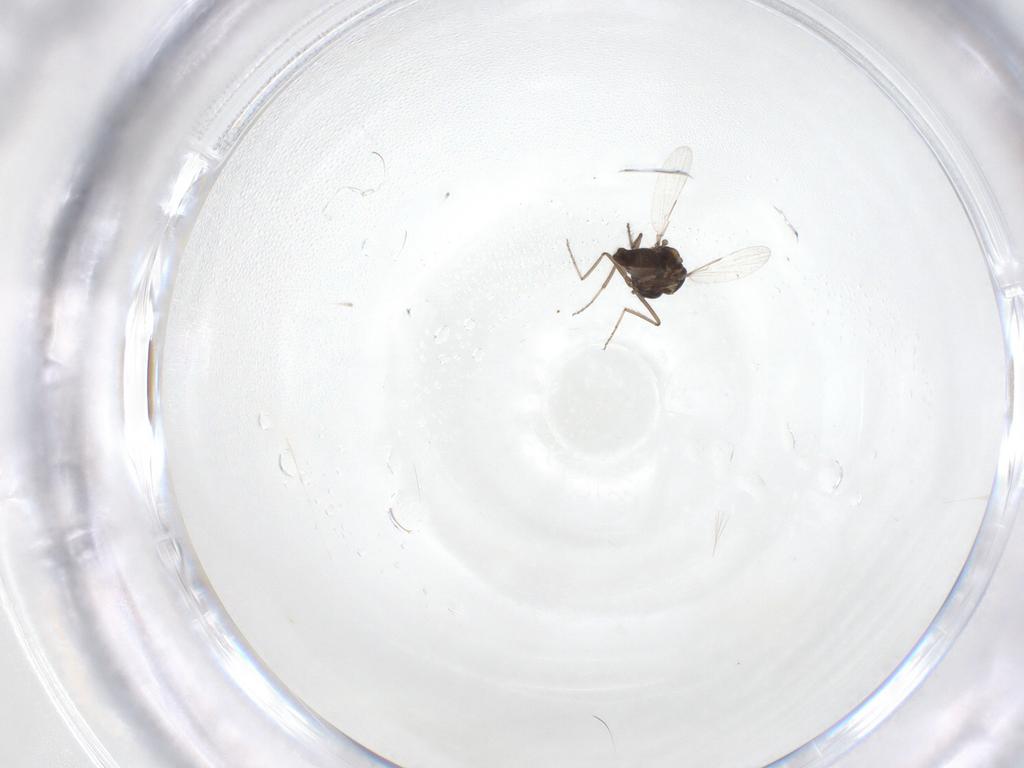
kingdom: Animalia
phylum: Arthropoda
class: Insecta
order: Diptera
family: Ceratopogonidae
